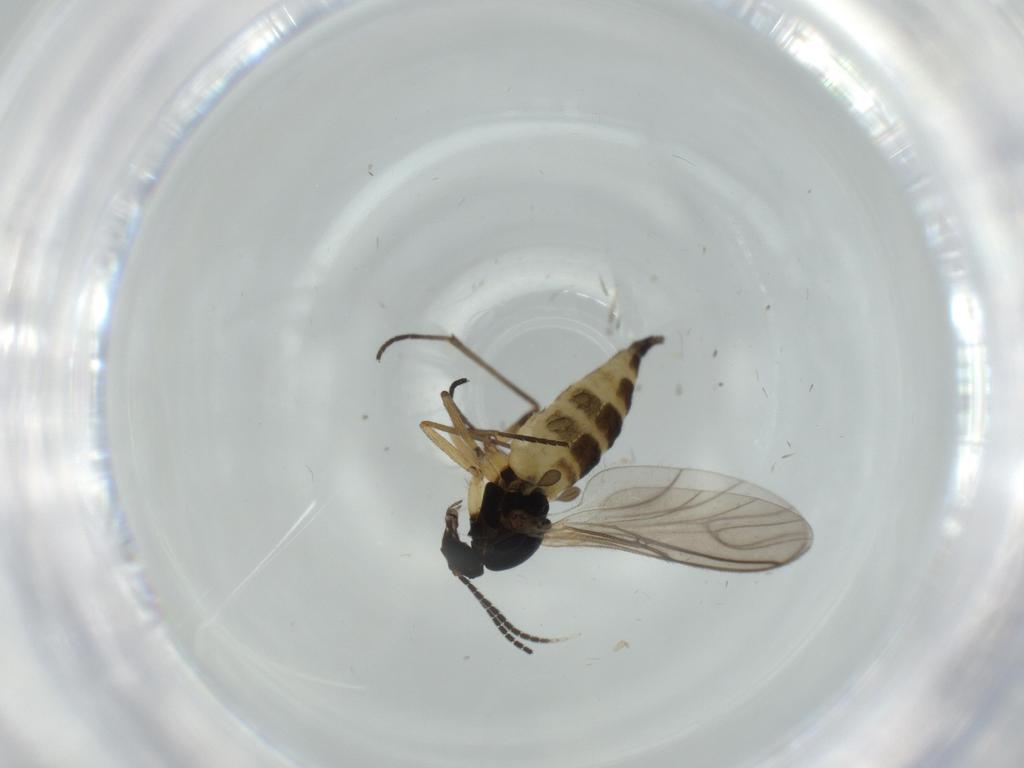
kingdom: Animalia
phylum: Arthropoda
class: Insecta
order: Diptera
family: Sciaridae
